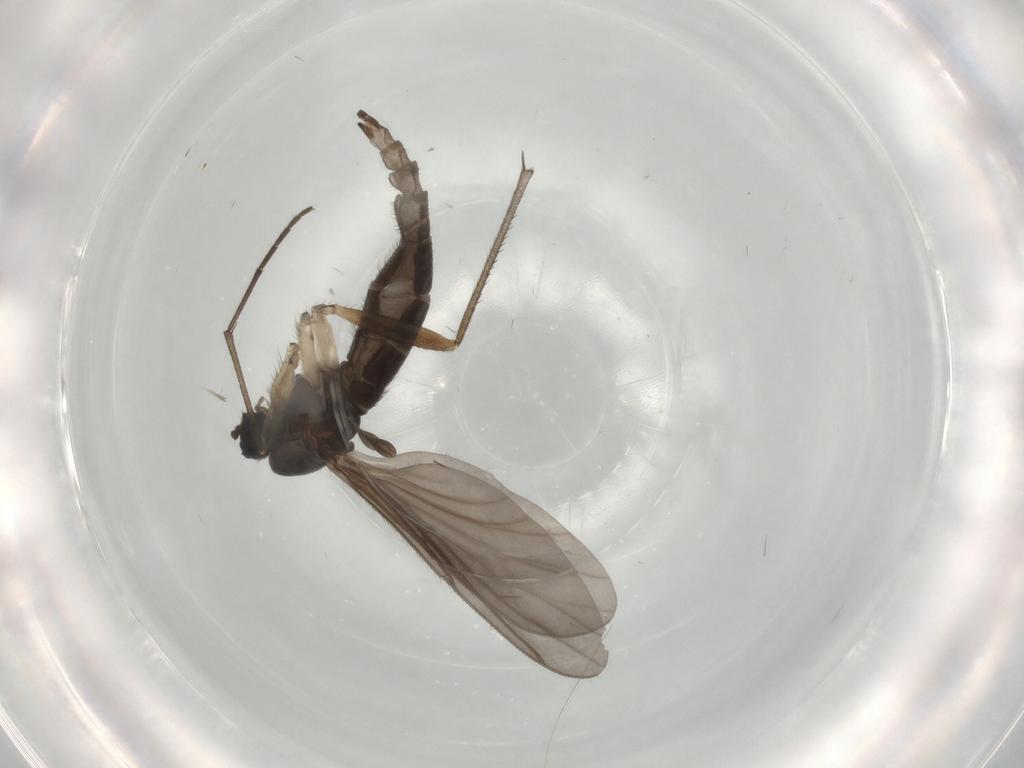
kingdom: Animalia
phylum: Arthropoda
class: Insecta
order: Diptera
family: Sciaridae
